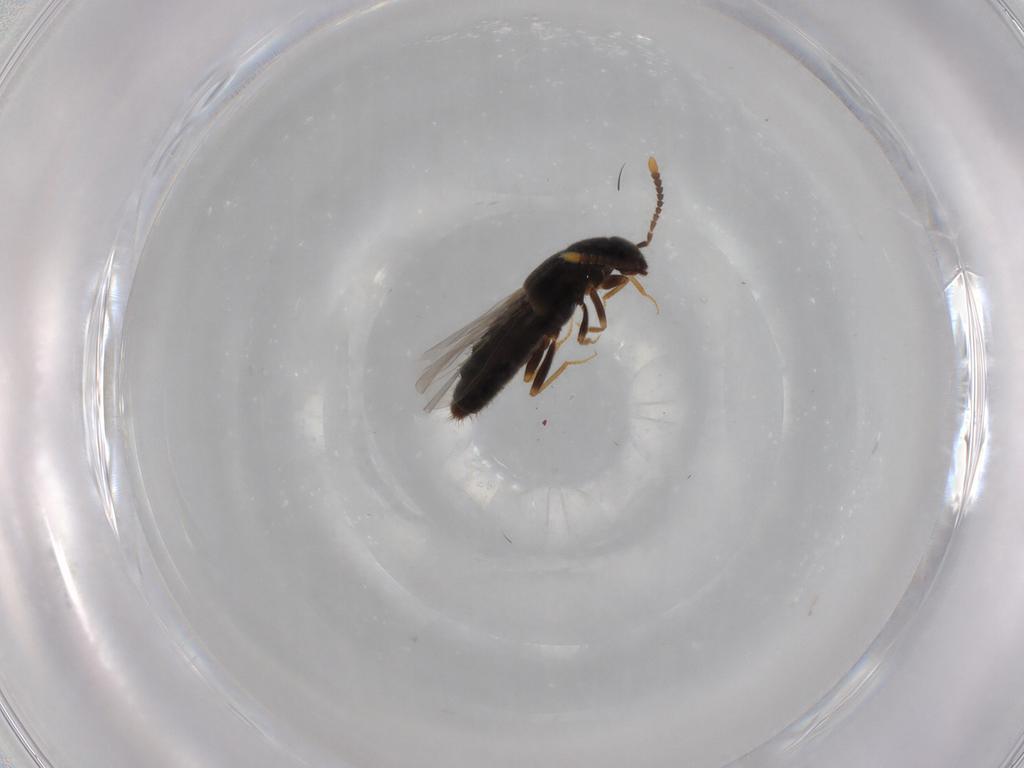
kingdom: Animalia
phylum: Arthropoda
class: Insecta
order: Coleoptera
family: Staphylinidae
